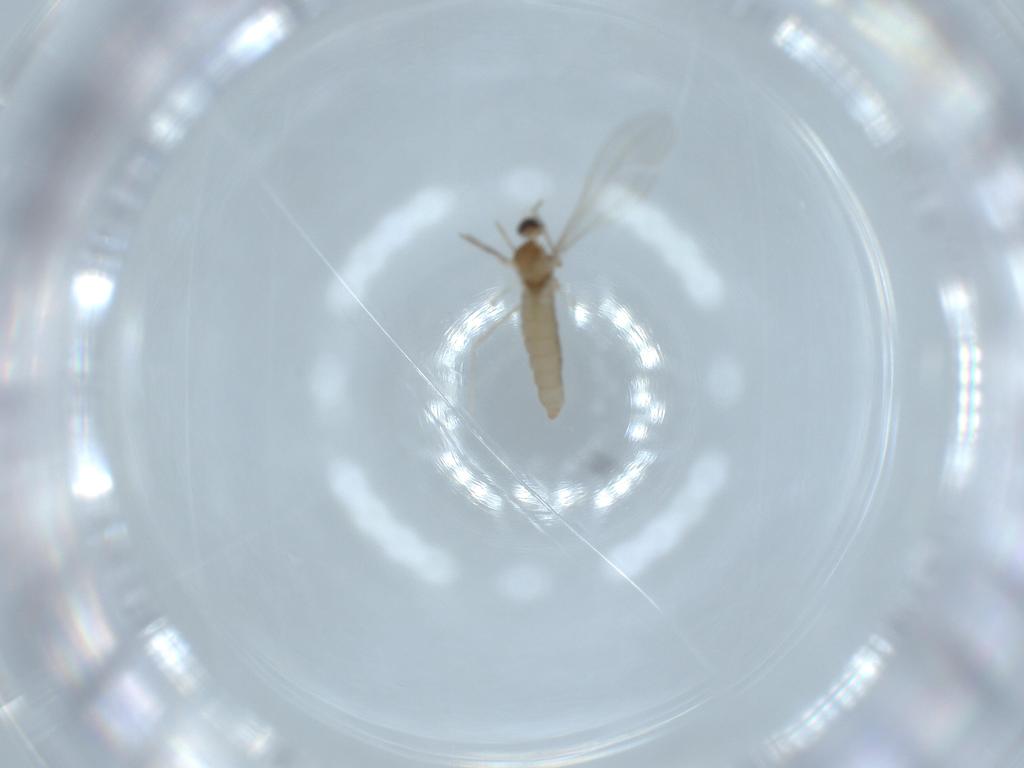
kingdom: Animalia
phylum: Arthropoda
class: Insecta
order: Diptera
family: Cecidomyiidae
